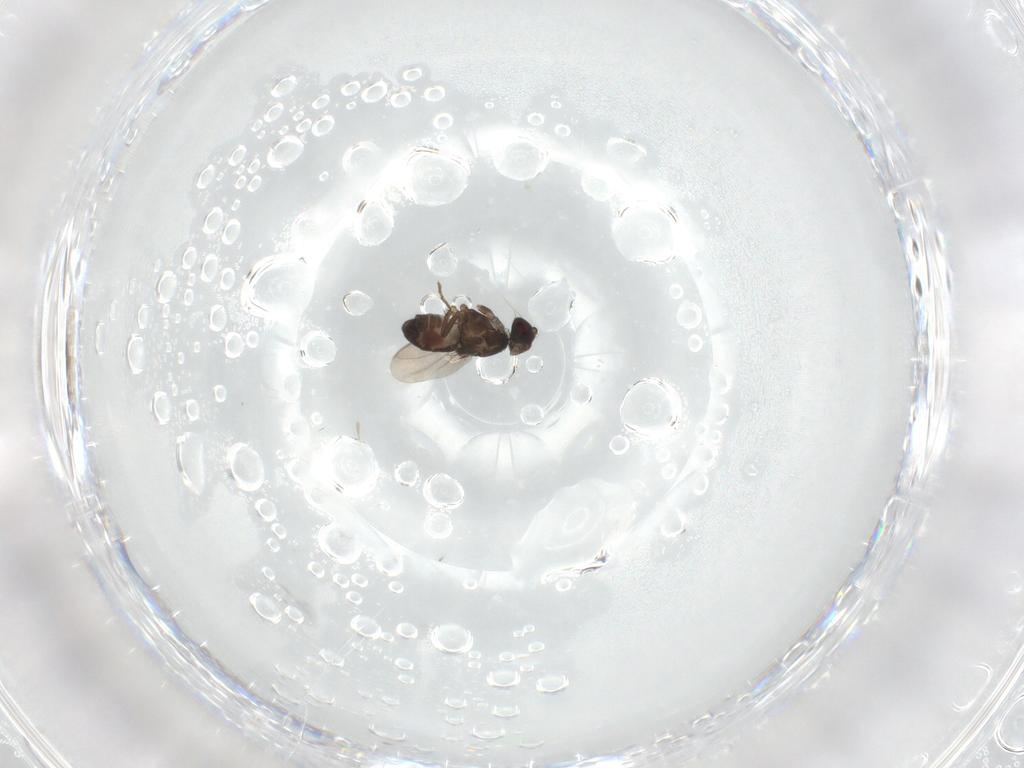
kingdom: Animalia
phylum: Arthropoda
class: Insecta
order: Diptera
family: Sphaeroceridae
